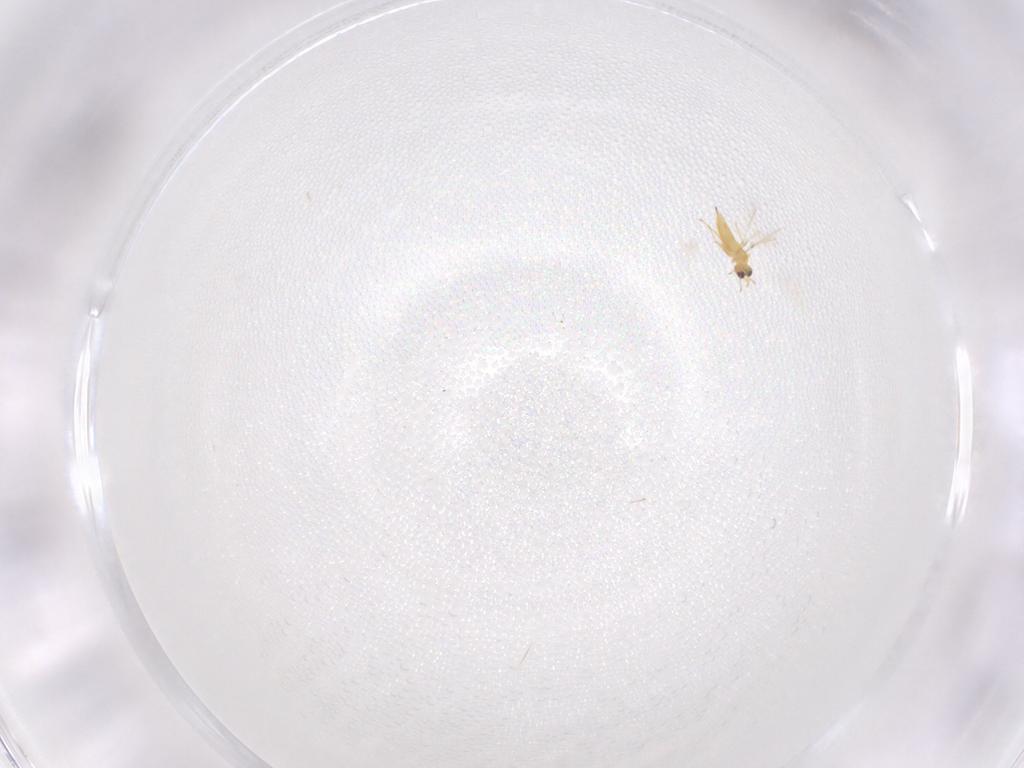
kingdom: Animalia
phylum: Arthropoda
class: Insecta
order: Hymenoptera
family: Mymaridae
